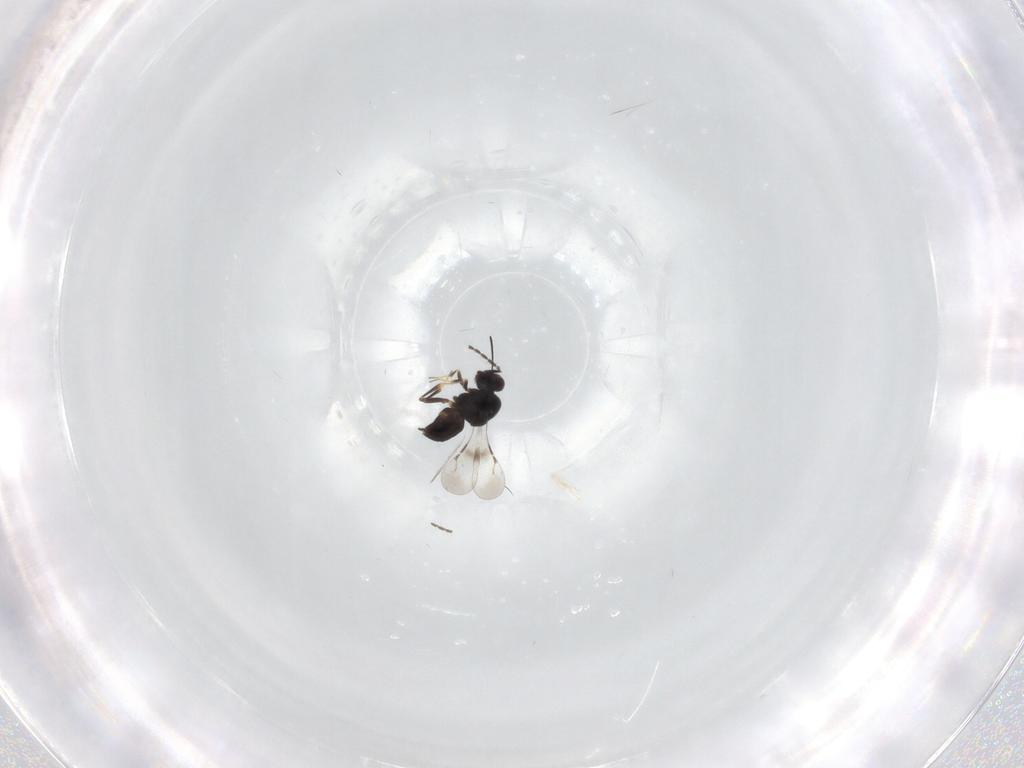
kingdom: Animalia
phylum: Arthropoda
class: Insecta
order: Hymenoptera
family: Ceraphronidae
